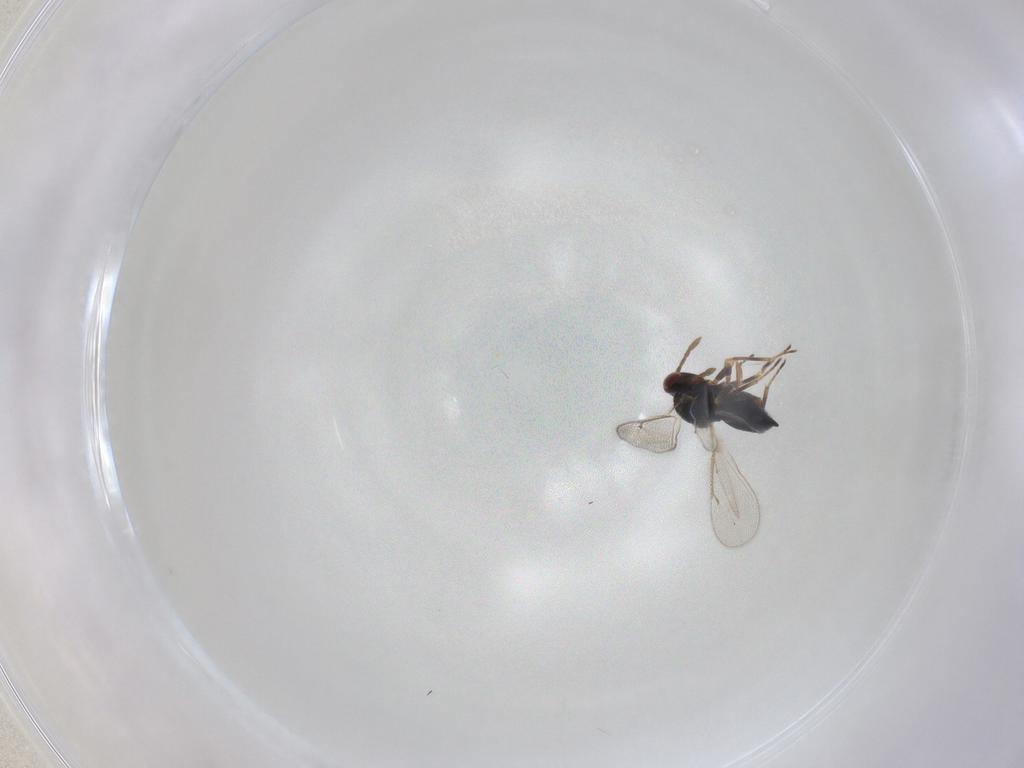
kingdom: Animalia
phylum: Arthropoda
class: Insecta
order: Hymenoptera
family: Eulophidae
